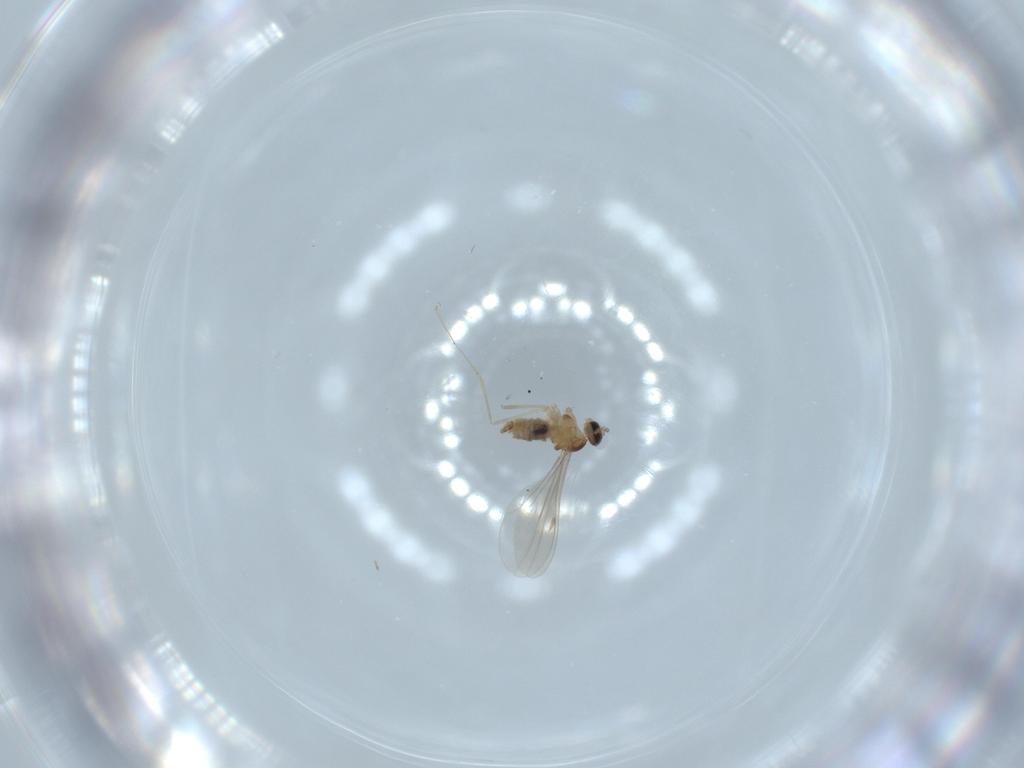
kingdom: Animalia
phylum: Arthropoda
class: Insecta
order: Diptera
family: Cecidomyiidae
